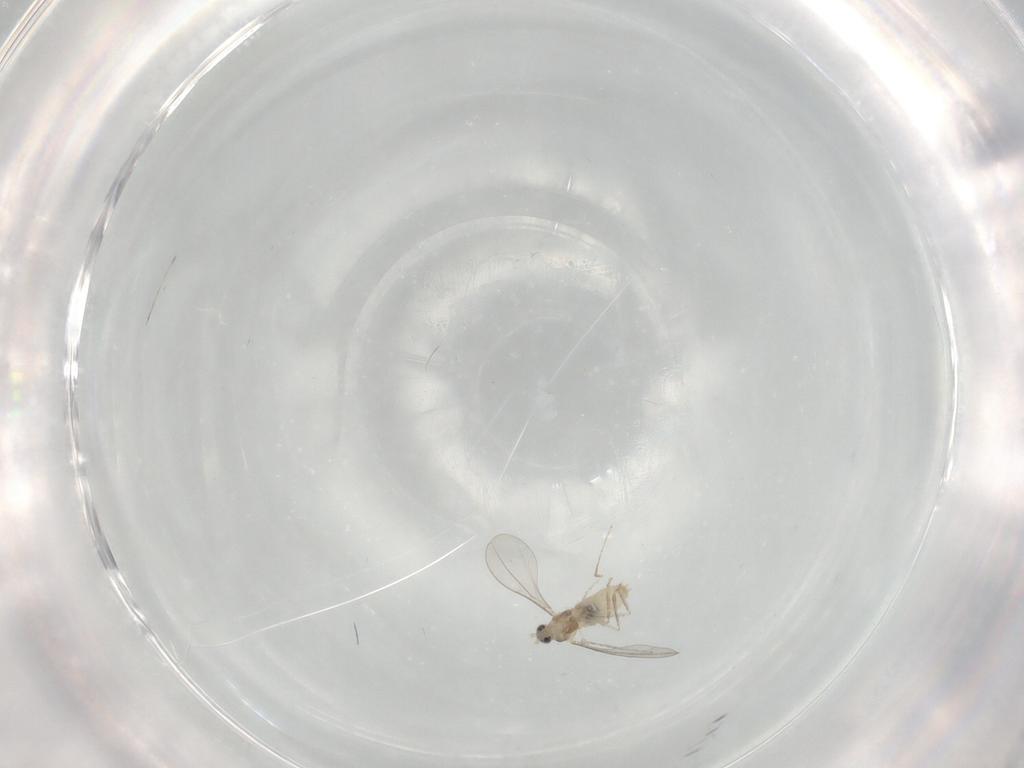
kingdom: Animalia
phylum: Arthropoda
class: Insecta
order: Diptera
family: Cecidomyiidae
